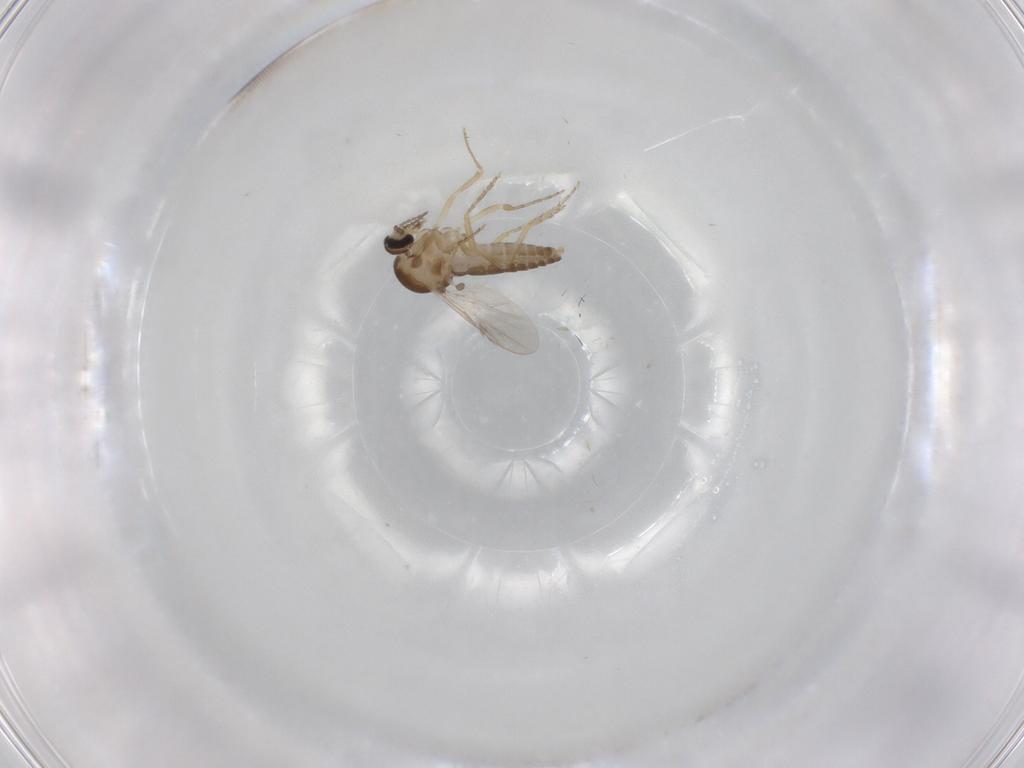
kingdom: Animalia
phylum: Arthropoda
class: Insecta
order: Diptera
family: Ceratopogonidae
